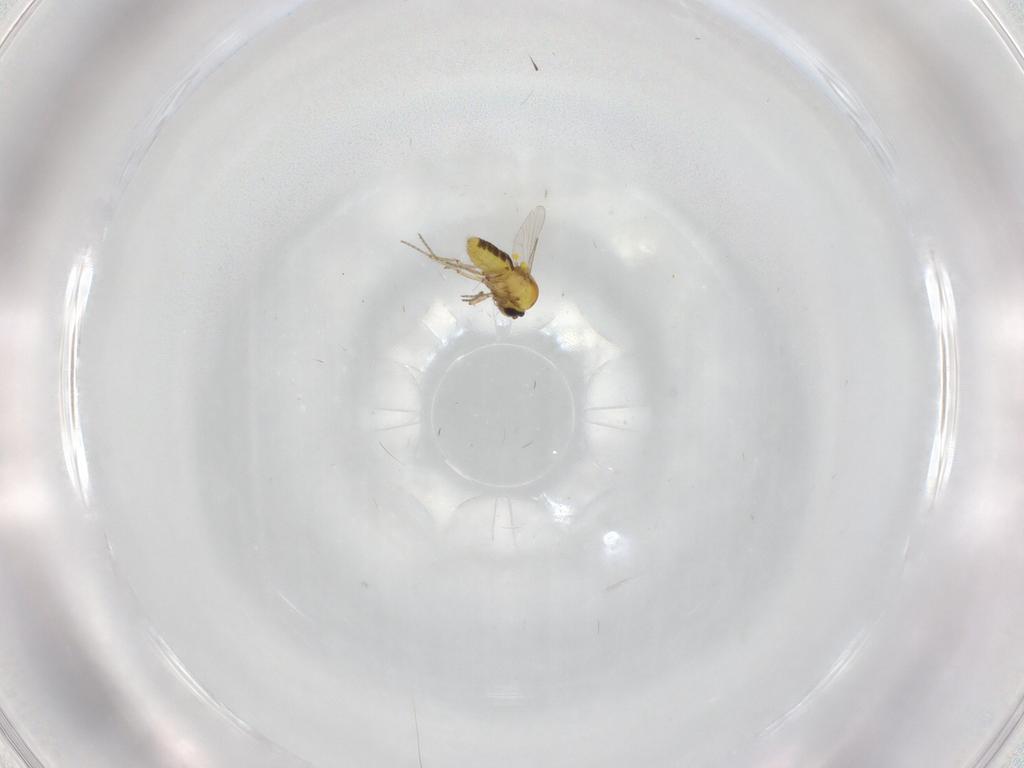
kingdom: Animalia
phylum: Arthropoda
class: Insecta
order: Diptera
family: Ceratopogonidae
